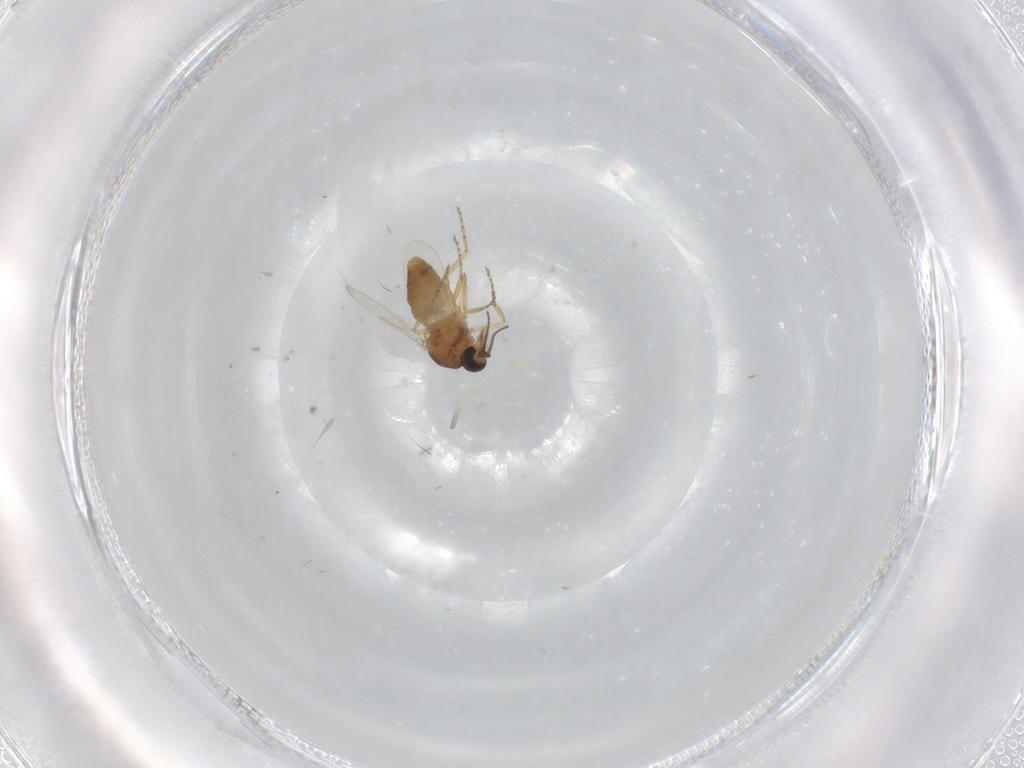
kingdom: Animalia
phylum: Arthropoda
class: Insecta
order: Diptera
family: Ceratopogonidae
